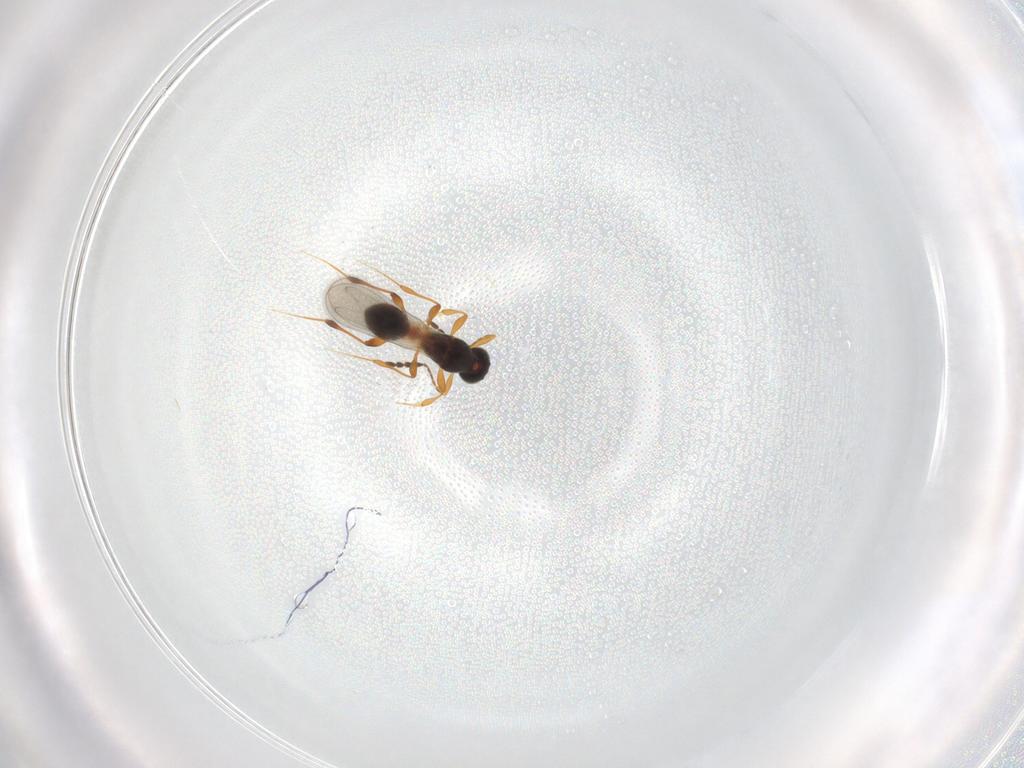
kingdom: Animalia
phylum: Arthropoda
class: Insecta
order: Hymenoptera
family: Platygastridae
